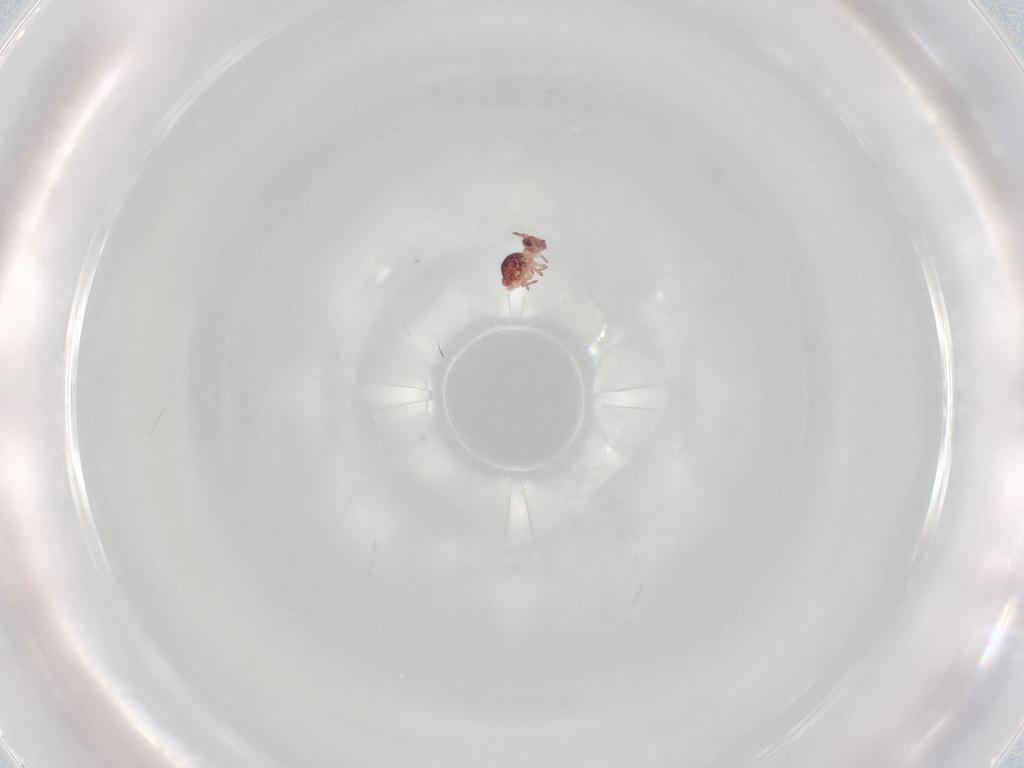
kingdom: Animalia
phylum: Arthropoda
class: Collembola
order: Symphypleona
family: Sminthurididae
